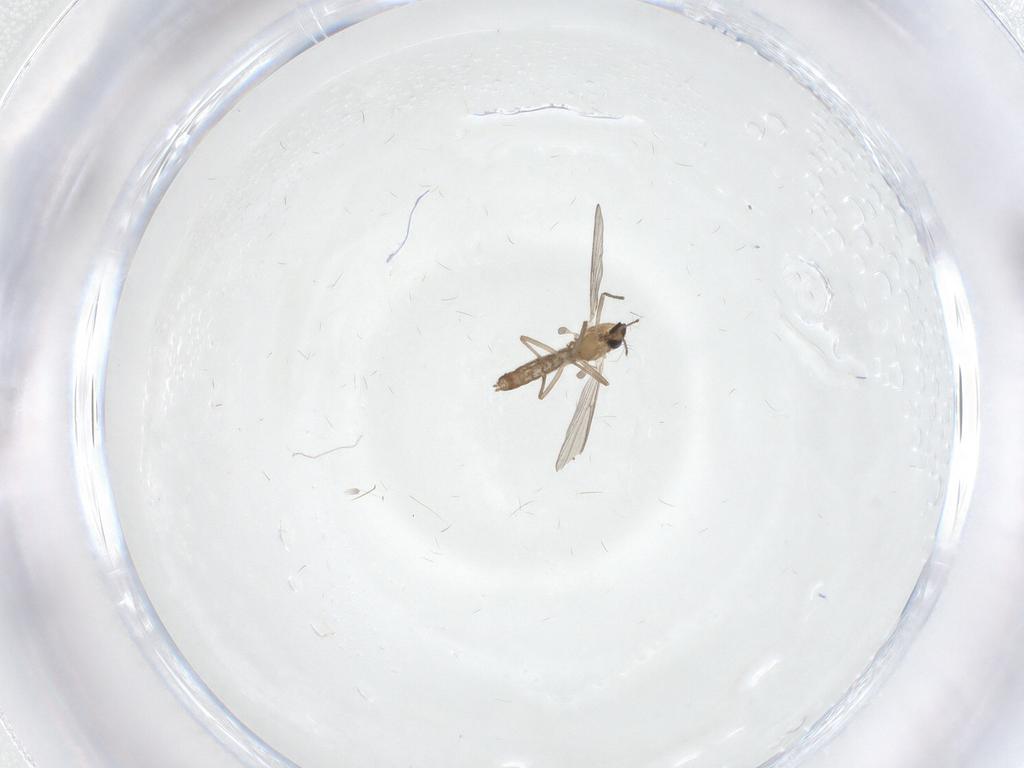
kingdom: Animalia
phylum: Arthropoda
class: Insecta
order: Diptera
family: Chironomidae
